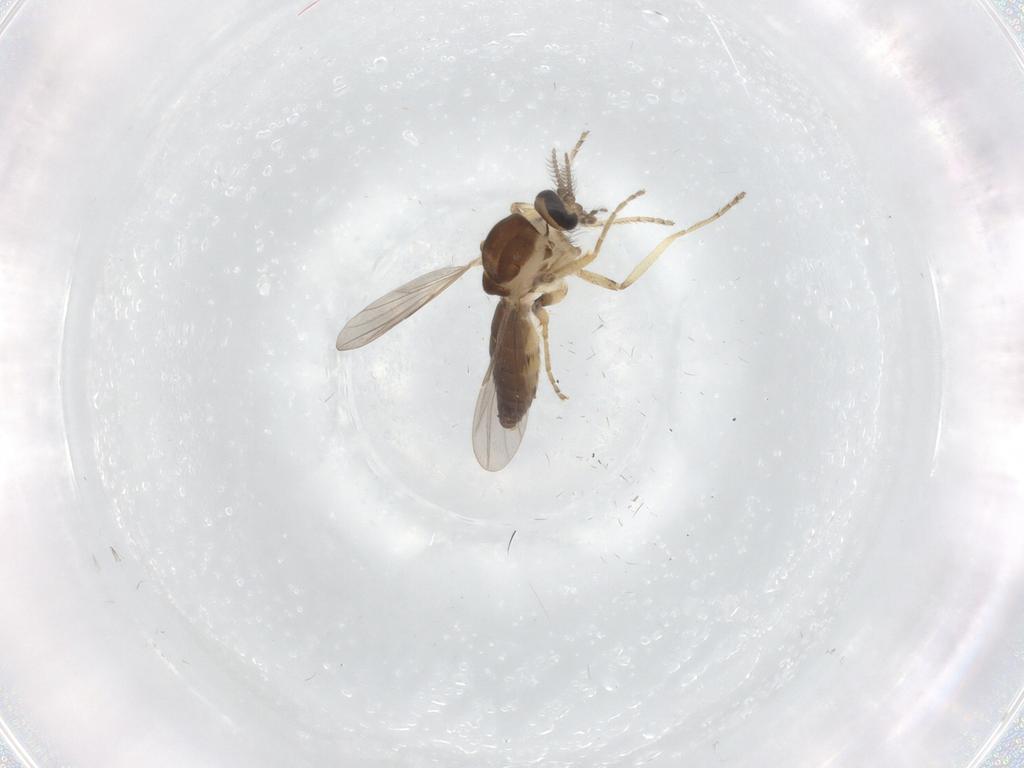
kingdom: Animalia
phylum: Arthropoda
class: Insecta
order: Diptera
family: Ceratopogonidae
